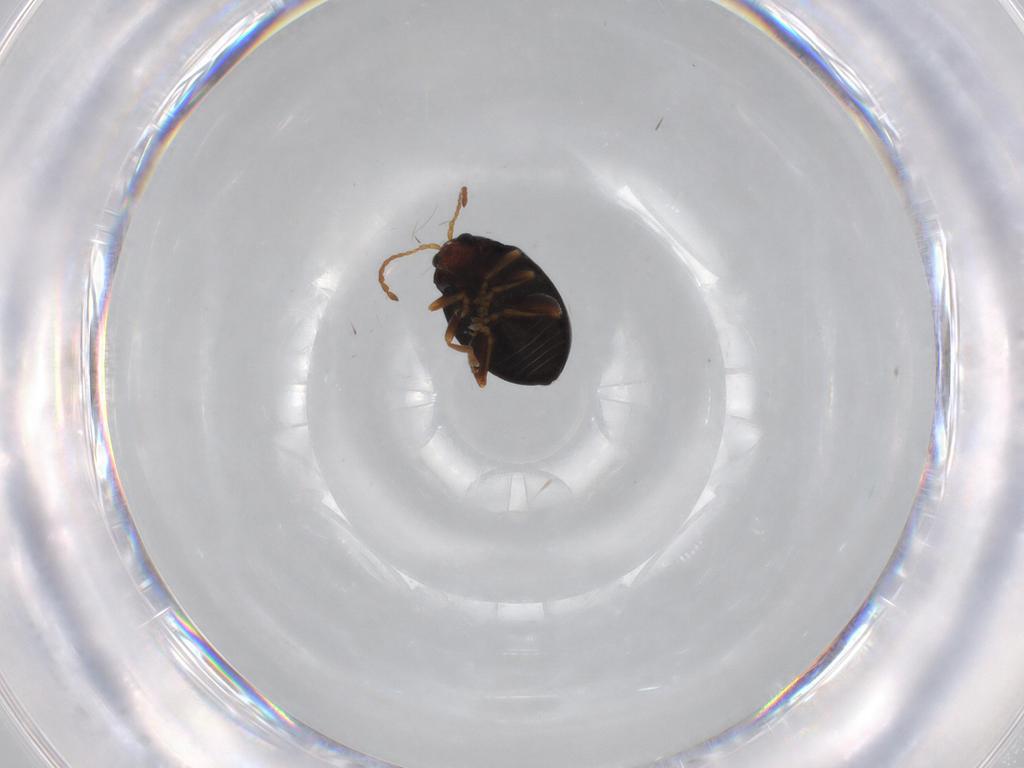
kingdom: Animalia
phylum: Arthropoda
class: Insecta
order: Coleoptera
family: Chrysomelidae
